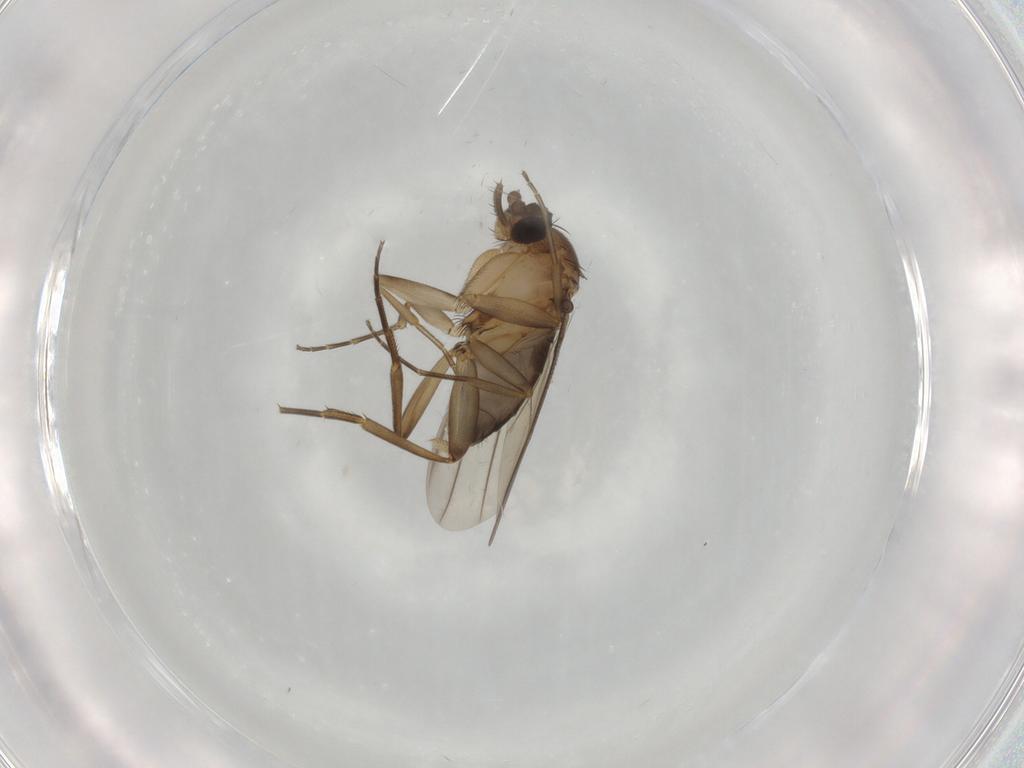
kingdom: Animalia
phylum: Arthropoda
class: Insecta
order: Diptera
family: Phoridae
